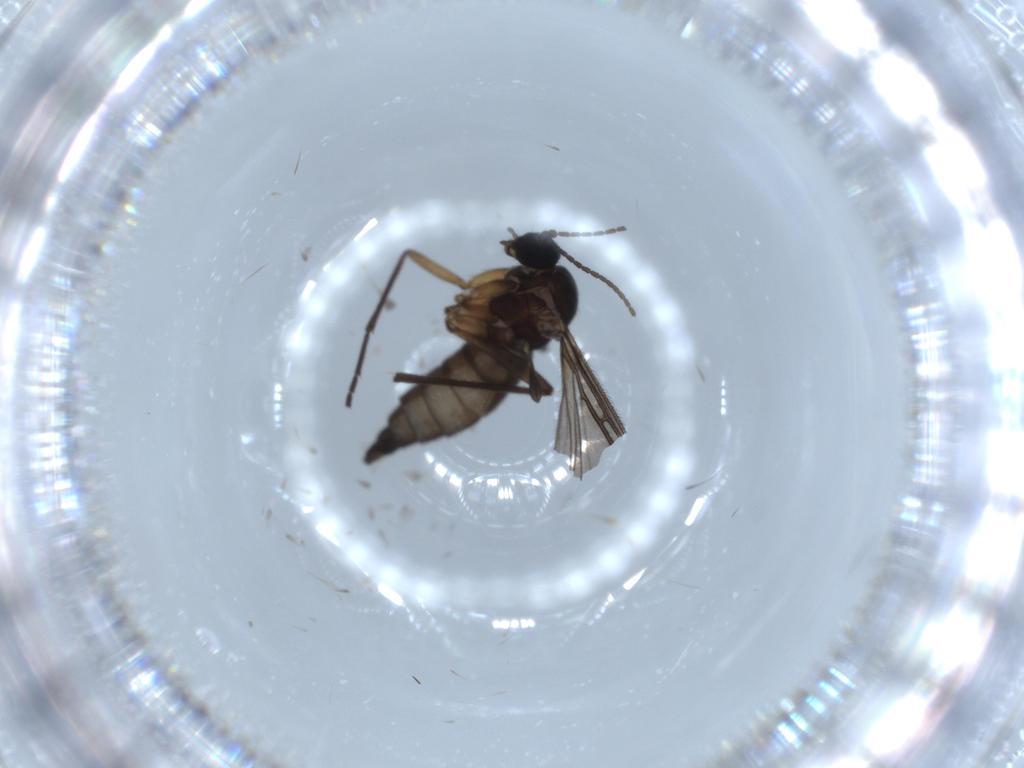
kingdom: Animalia
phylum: Arthropoda
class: Insecta
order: Diptera
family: Sciaridae
